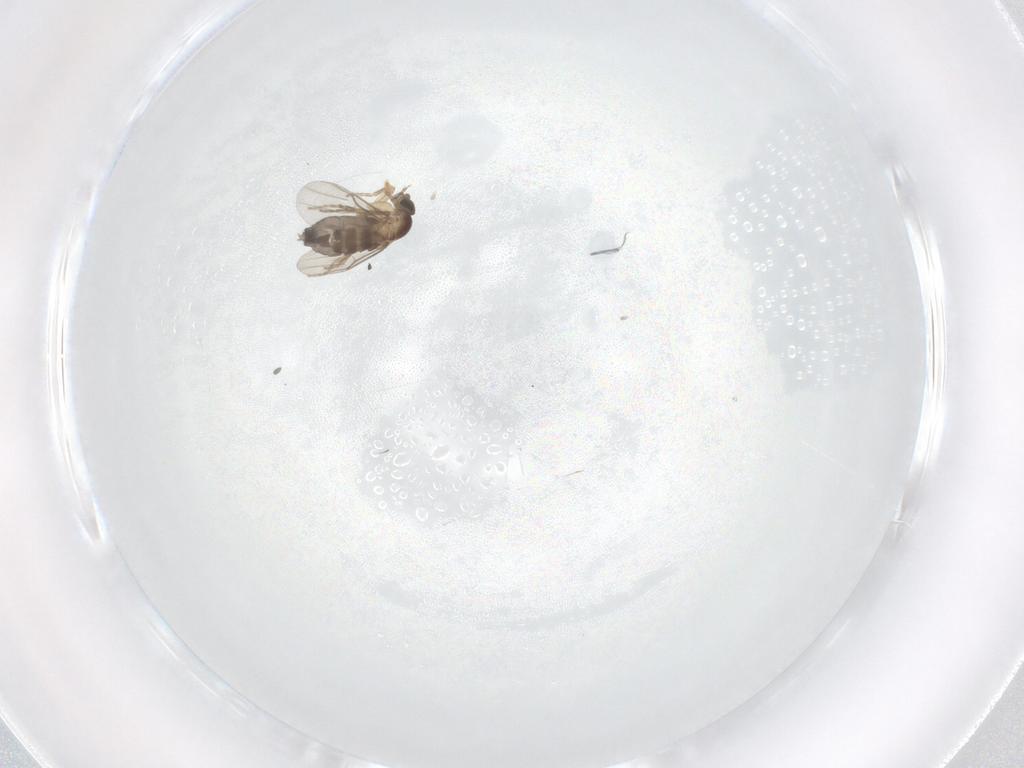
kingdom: Animalia
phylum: Arthropoda
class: Insecta
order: Diptera
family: Phoridae
